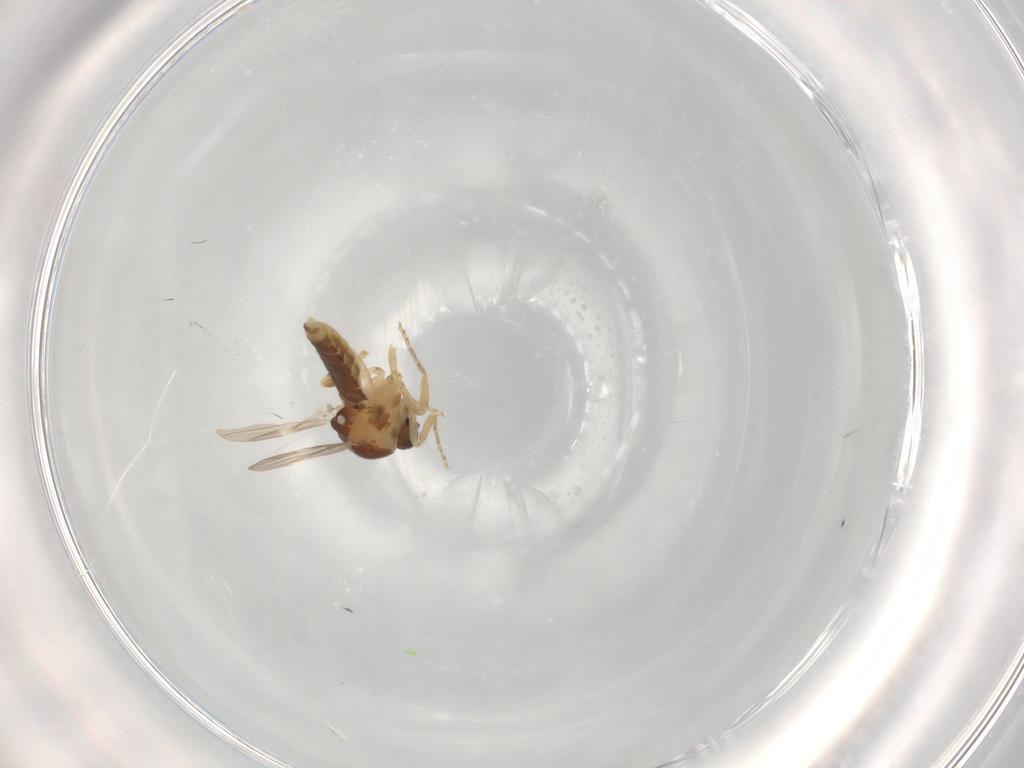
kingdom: Animalia
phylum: Arthropoda
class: Insecta
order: Diptera
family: Ceratopogonidae
